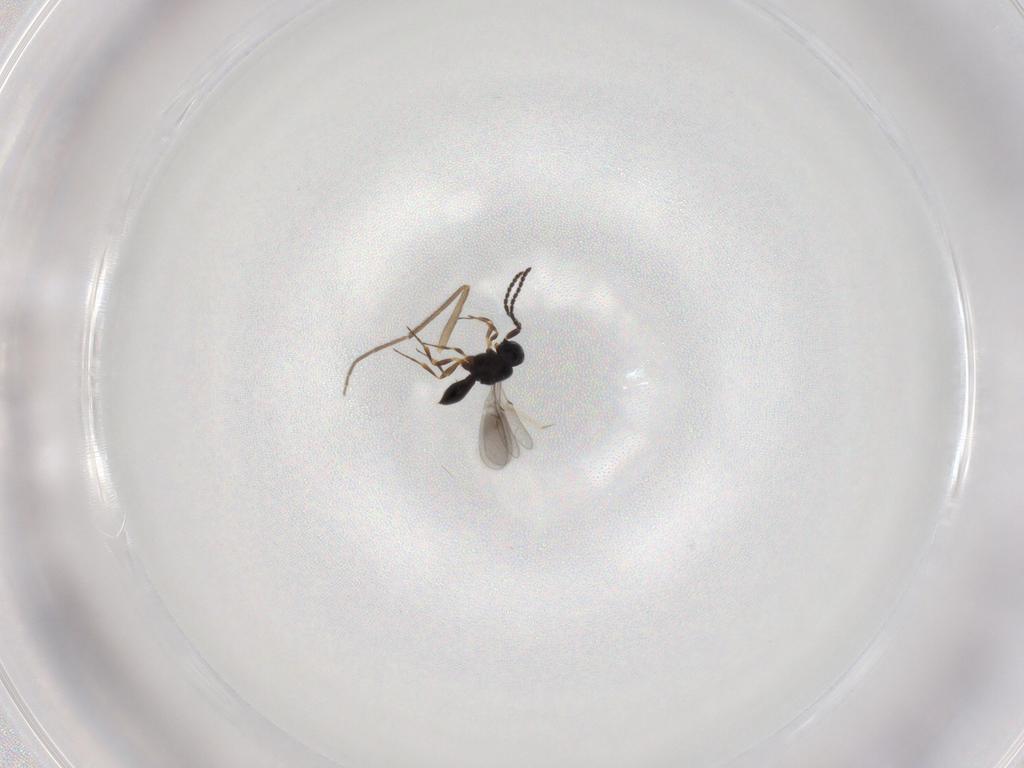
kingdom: Animalia
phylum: Arthropoda
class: Insecta
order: Hymenoptera
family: Scelionidae
